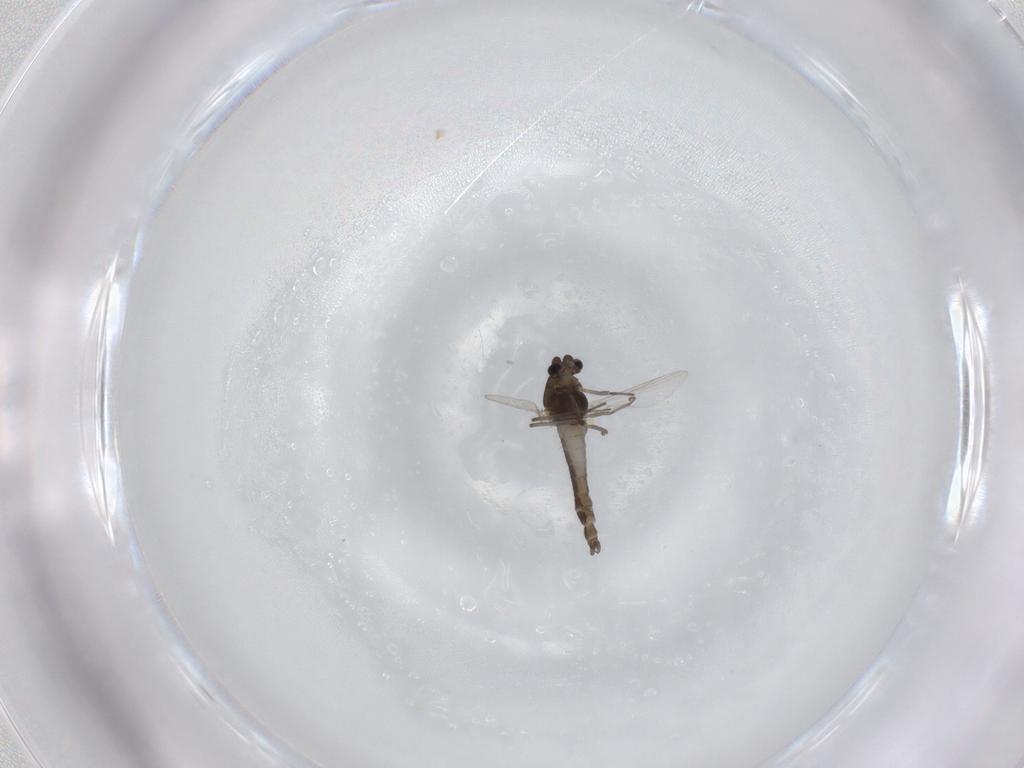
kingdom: Animalia
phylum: Arthropoda
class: Insecta
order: Diptera
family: Chironomidae
